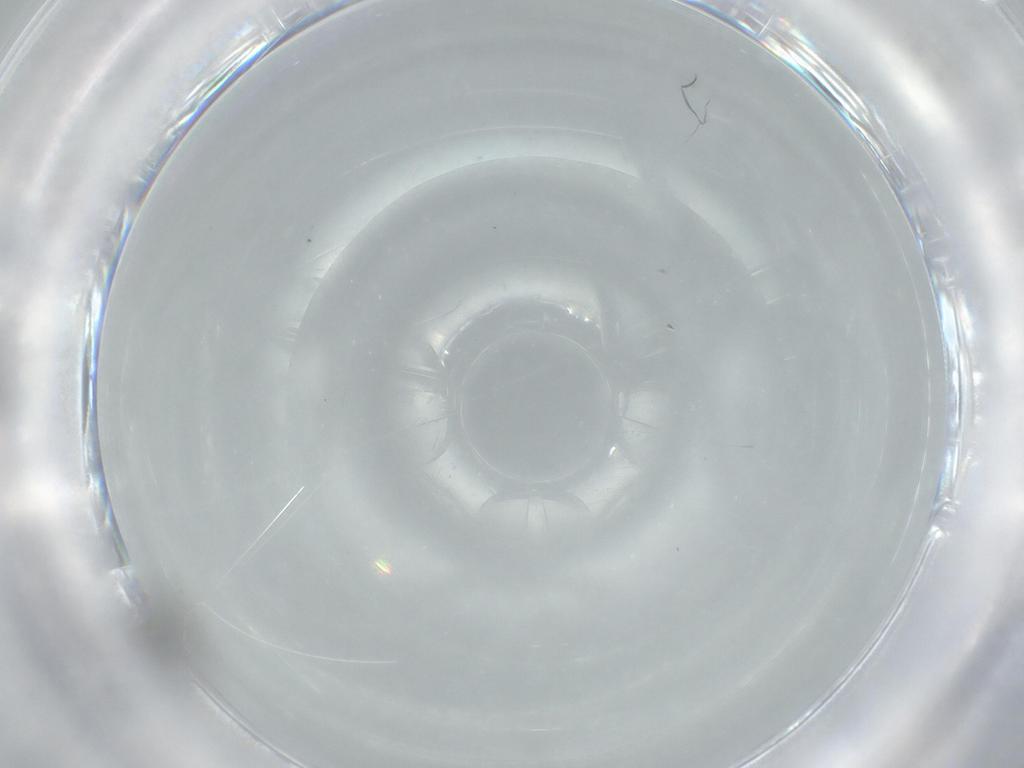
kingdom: Animalia
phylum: Arthropoda
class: Insecta
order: Coleoptera
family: Staphylinidae
